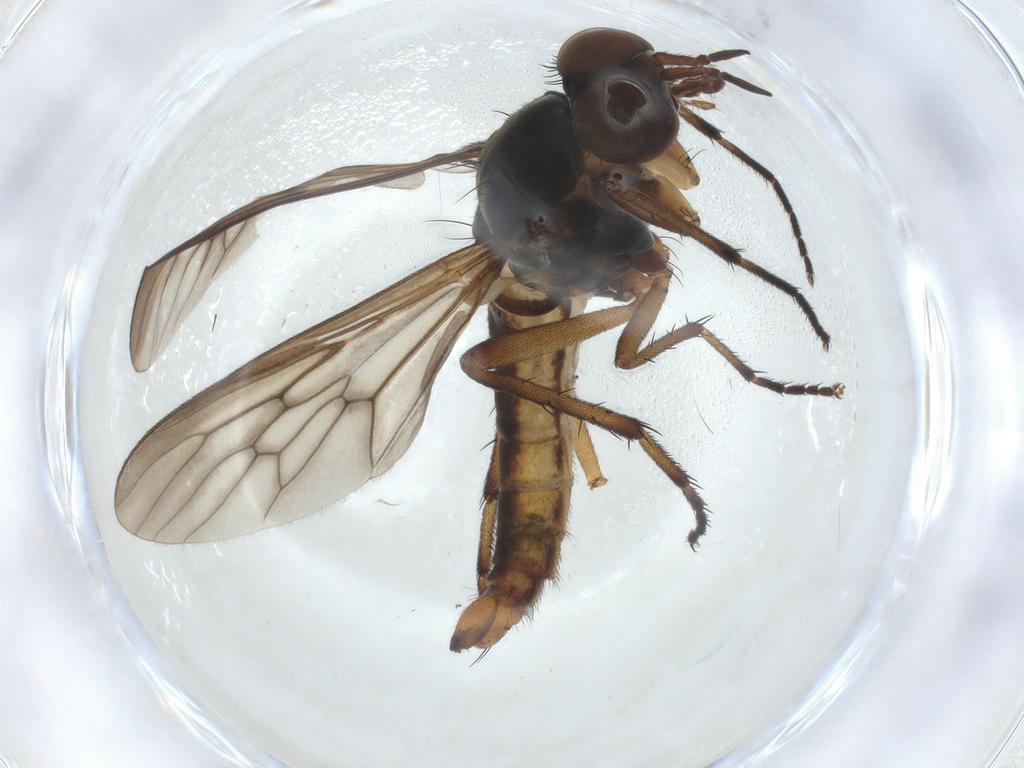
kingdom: Animalia
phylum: Arthropoda
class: Insecta
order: Diptera
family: Therevidae
